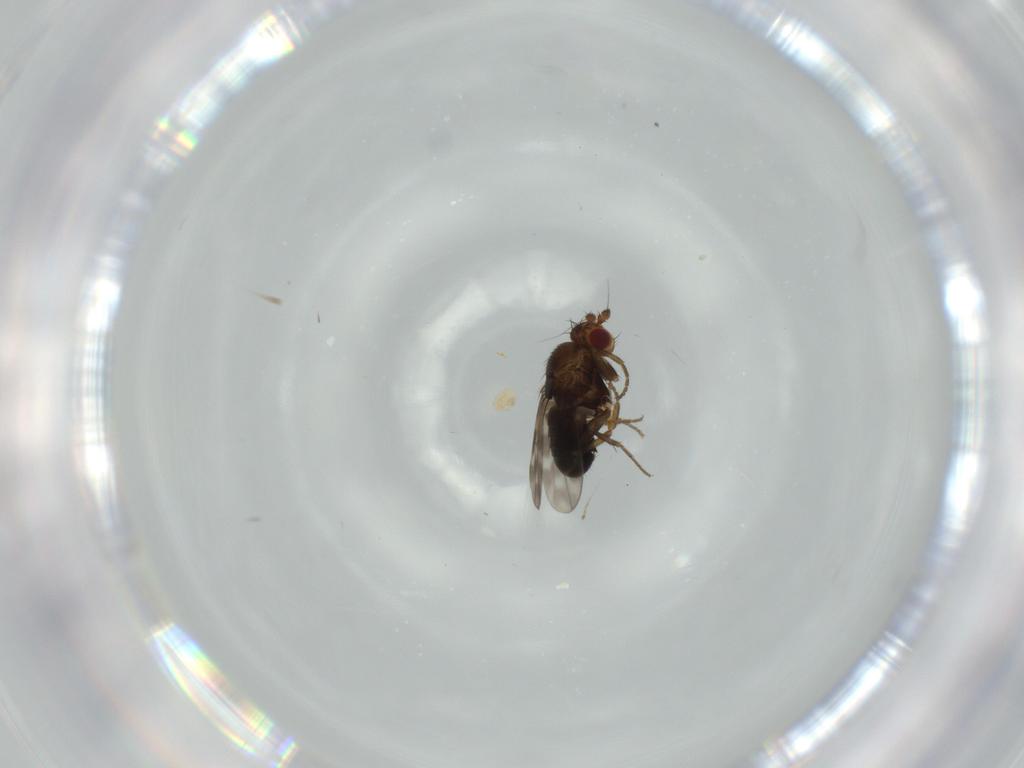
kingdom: Animalia
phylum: Arthropoda
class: Insecta
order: Diptera
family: Sphaeroceridae
